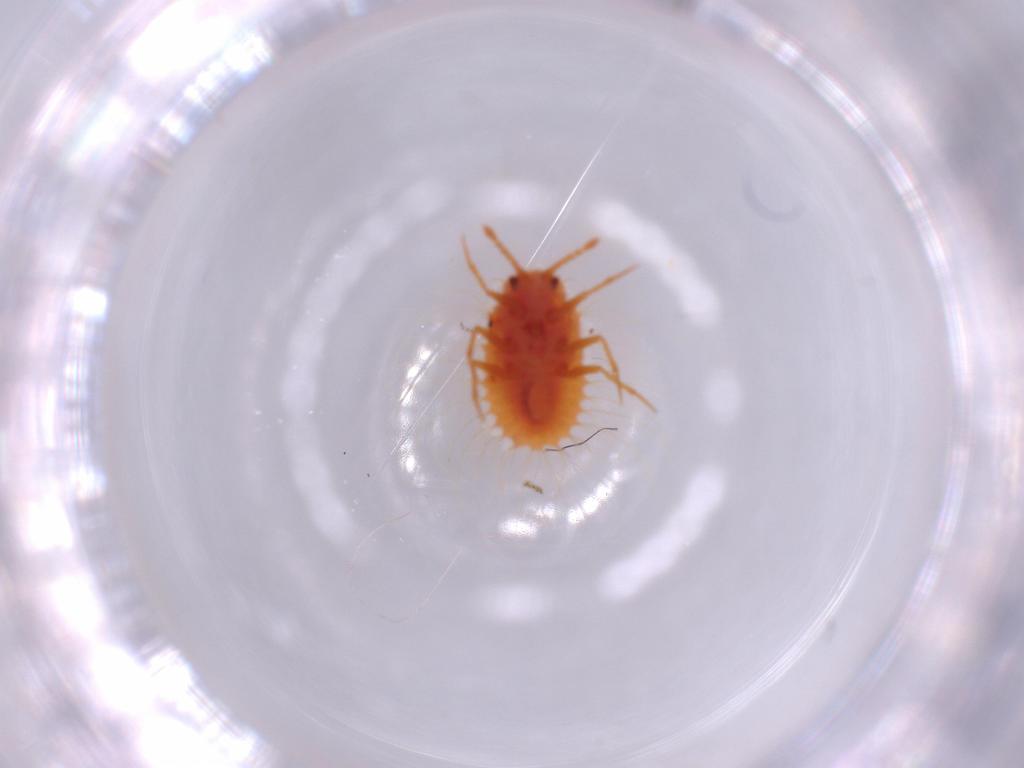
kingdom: Animalia
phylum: Arthropoda
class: Insecta
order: Hemiptera
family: Coccoidea_incertae_sedis
